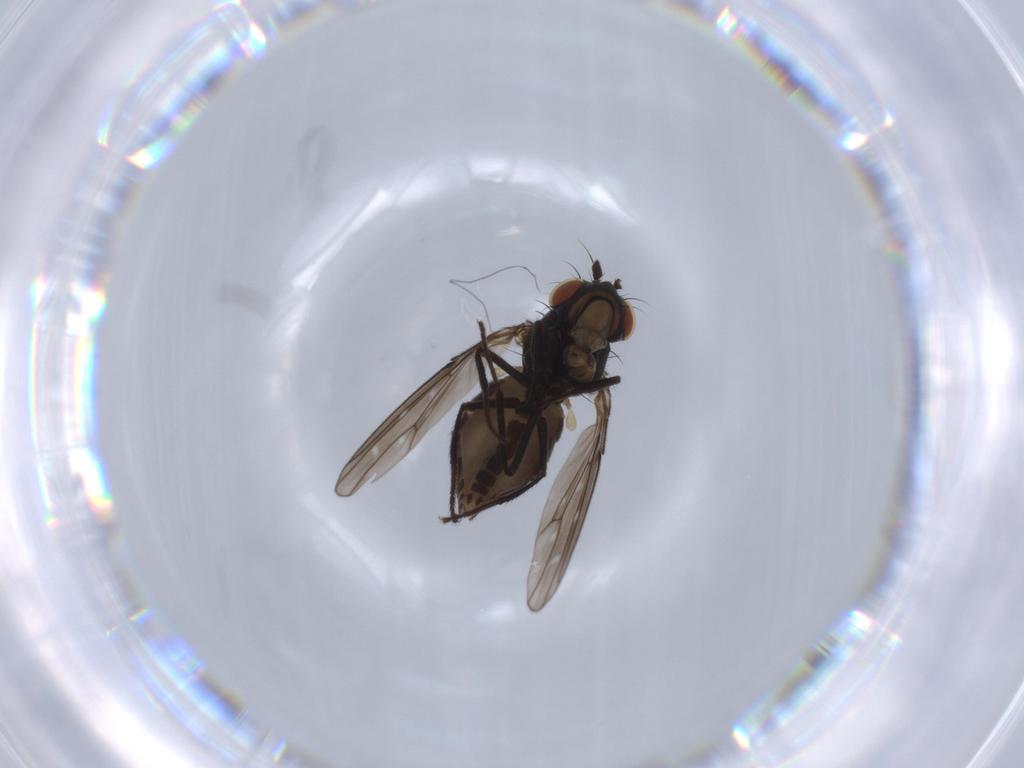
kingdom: Animalia
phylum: Arthropoda
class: Insecta
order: Diptera
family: Ephydridae
